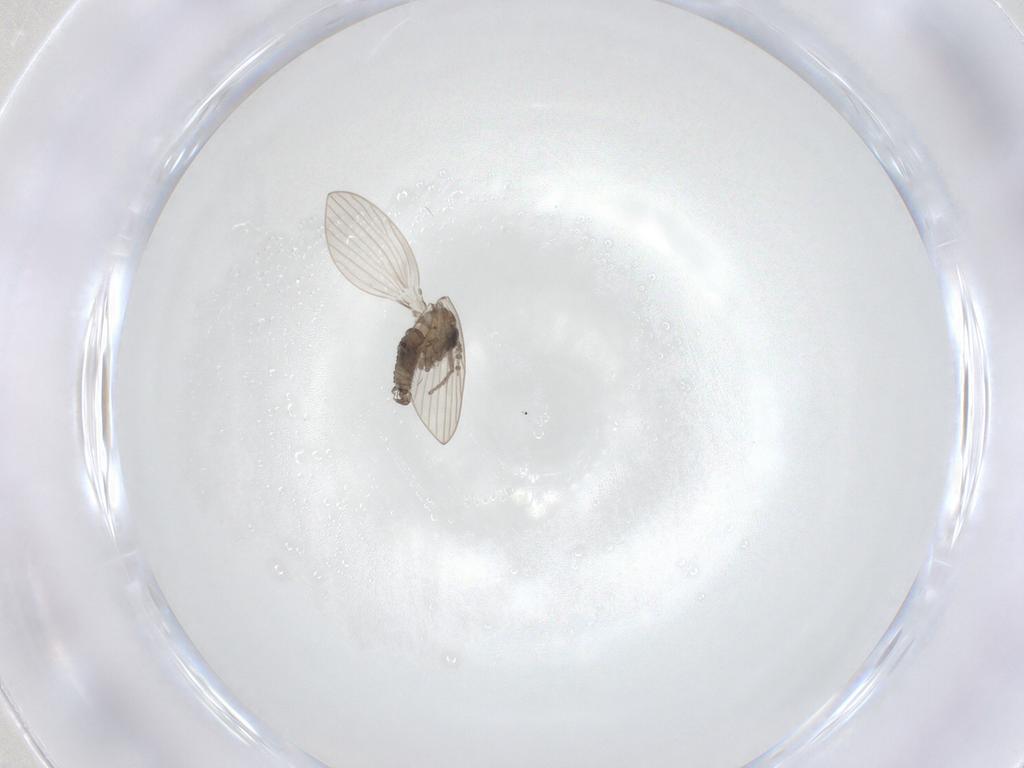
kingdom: Animalia
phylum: Arthropoda
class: Insecta
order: Diptera
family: Psychodidae
